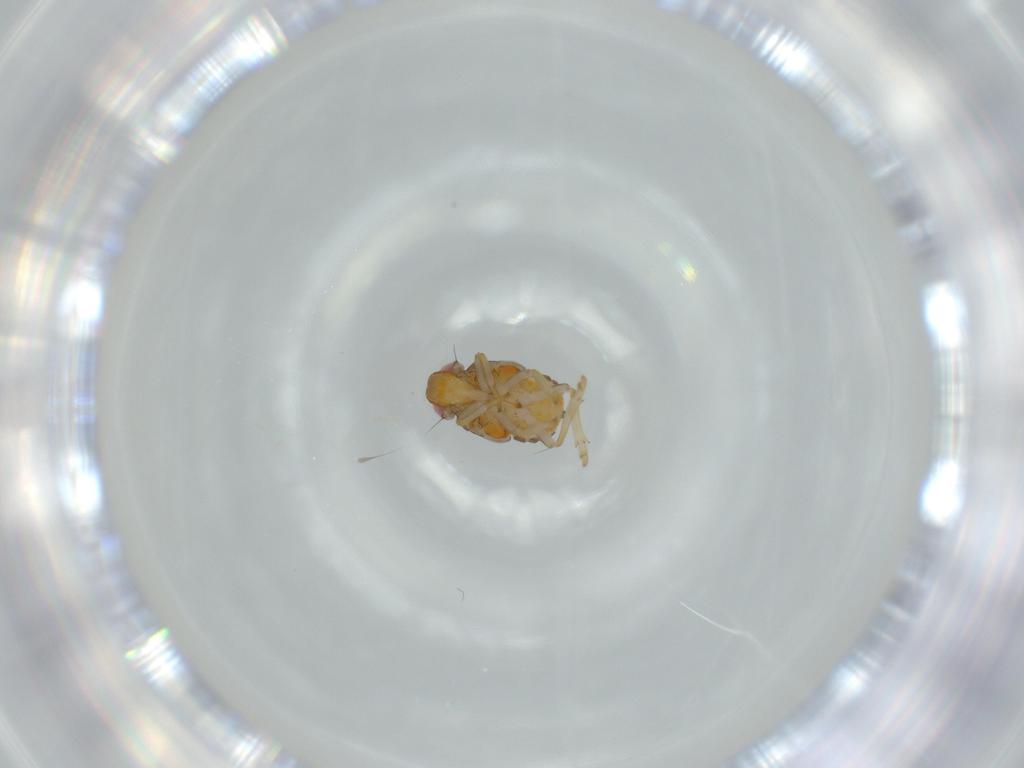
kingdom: Animalia
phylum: Arthropoda
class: Insecta
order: Hemiptera
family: Issidae
